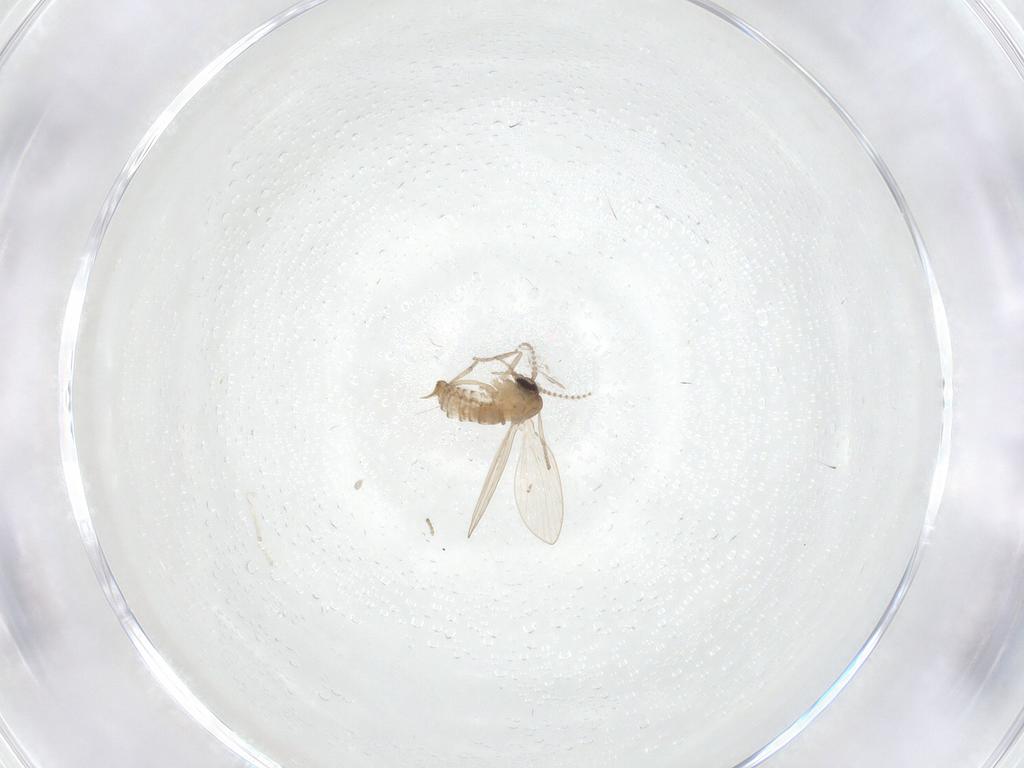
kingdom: Animalia
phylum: Arthropoda
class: Insecta
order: Diptera
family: Psychodidae
